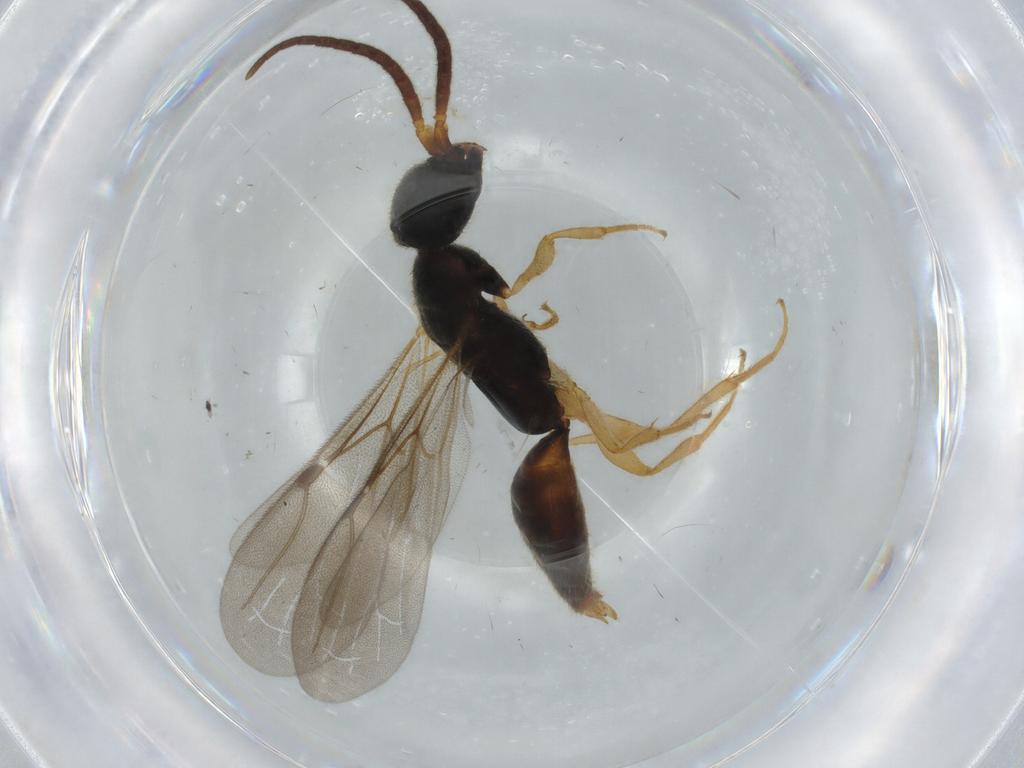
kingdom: Animalia
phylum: Arthropoda
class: Insecta
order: Hymenoptera
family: Bethylidae
